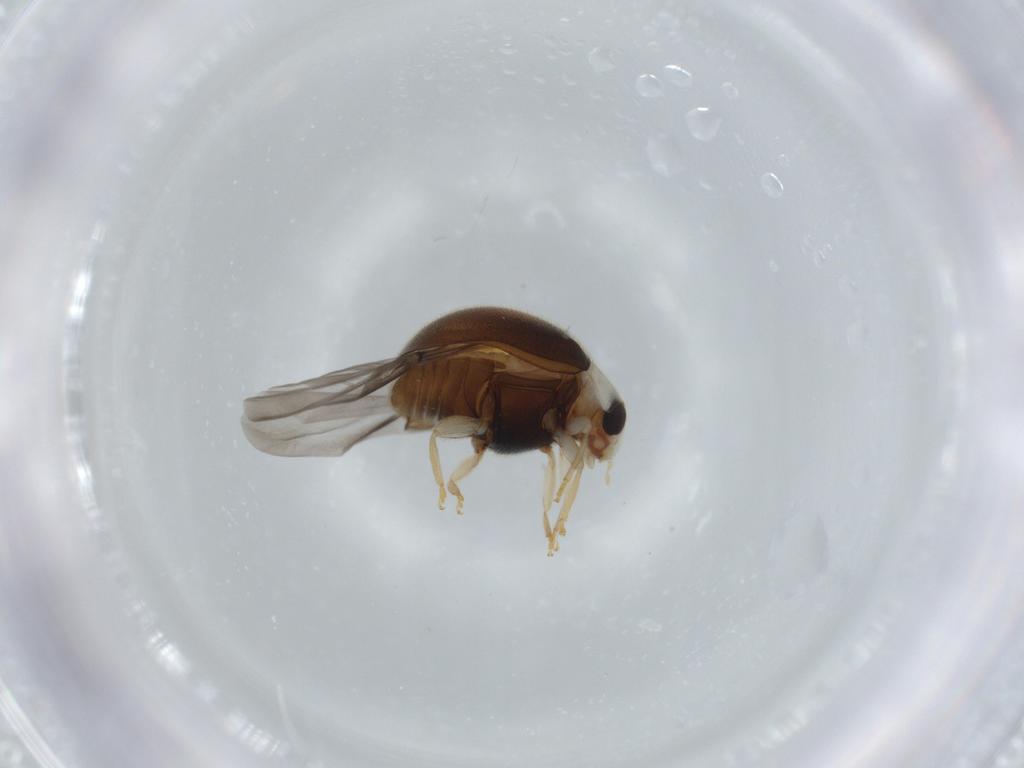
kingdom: Animalia
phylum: Arthropoda
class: Insecta
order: Coleoptera
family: Coccinellidae
